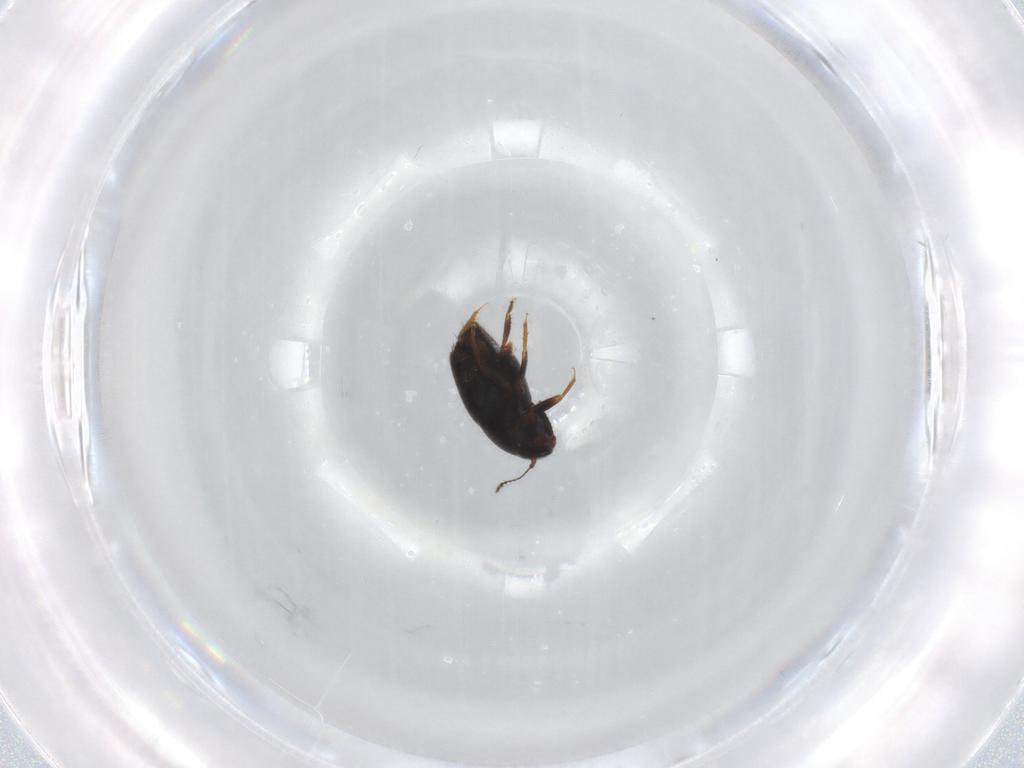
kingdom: Animalia
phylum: Arthropoda
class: Insecta
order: Coleoptera
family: Ptiliidae
